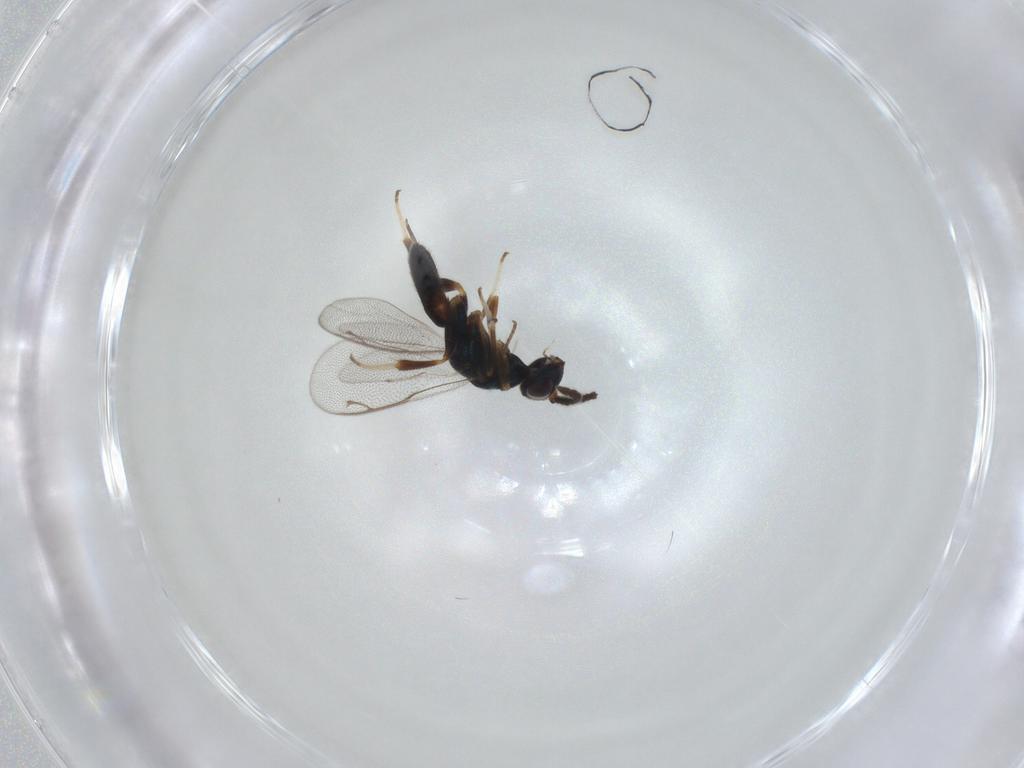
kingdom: Animalia
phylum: Arthropoda
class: Insecta
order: Hymenoptera
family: Cleonyminae
